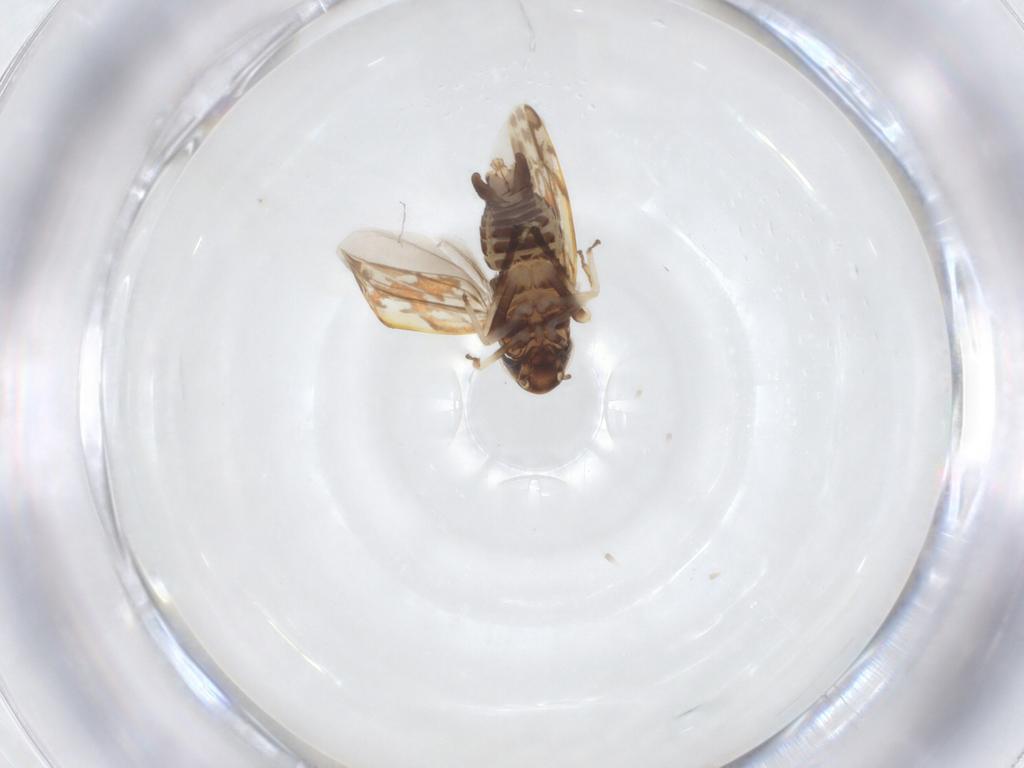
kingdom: Animalia
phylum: Arthropoda
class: Insecta
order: Hemiptera
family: Cicadellidae
